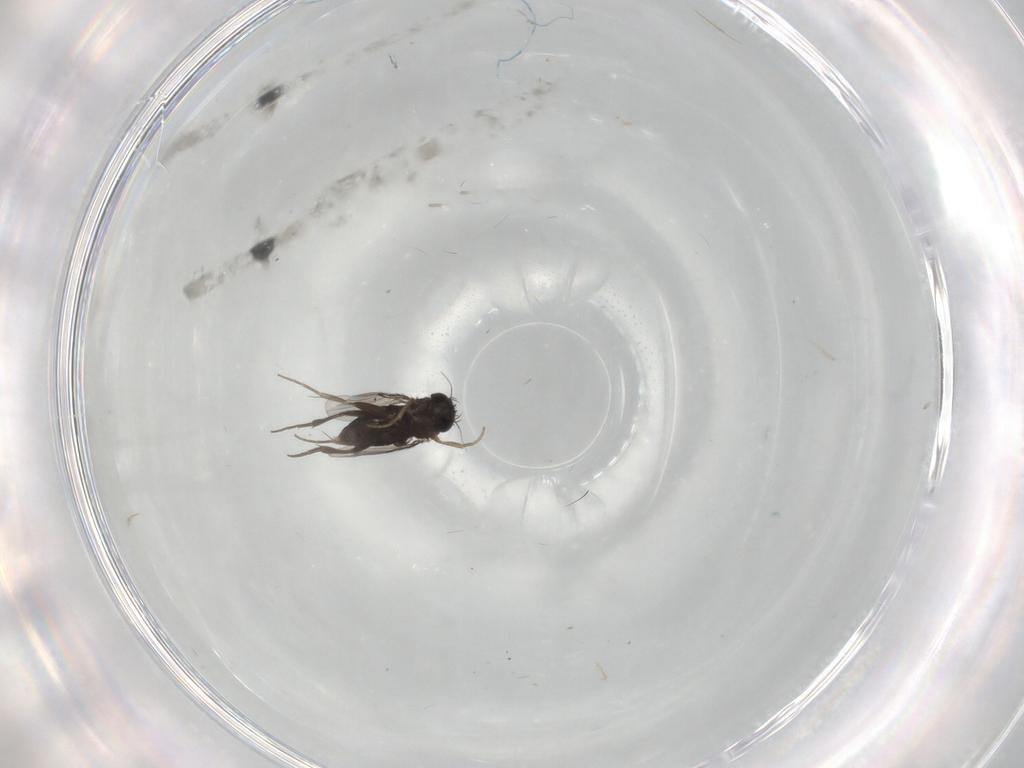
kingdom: Animalia
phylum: Arthropoda
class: Insecta
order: Diptera
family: Phoridae
